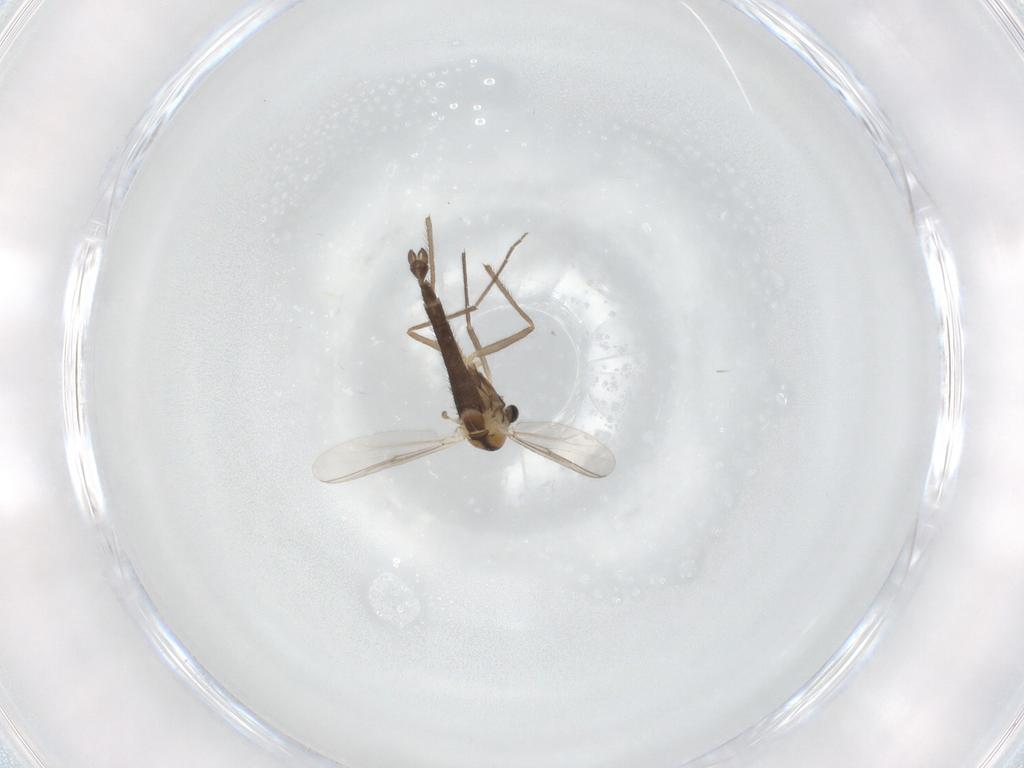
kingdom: Animalia
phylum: Arthropoda
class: Insecta
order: Diptera
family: Chironomidae
